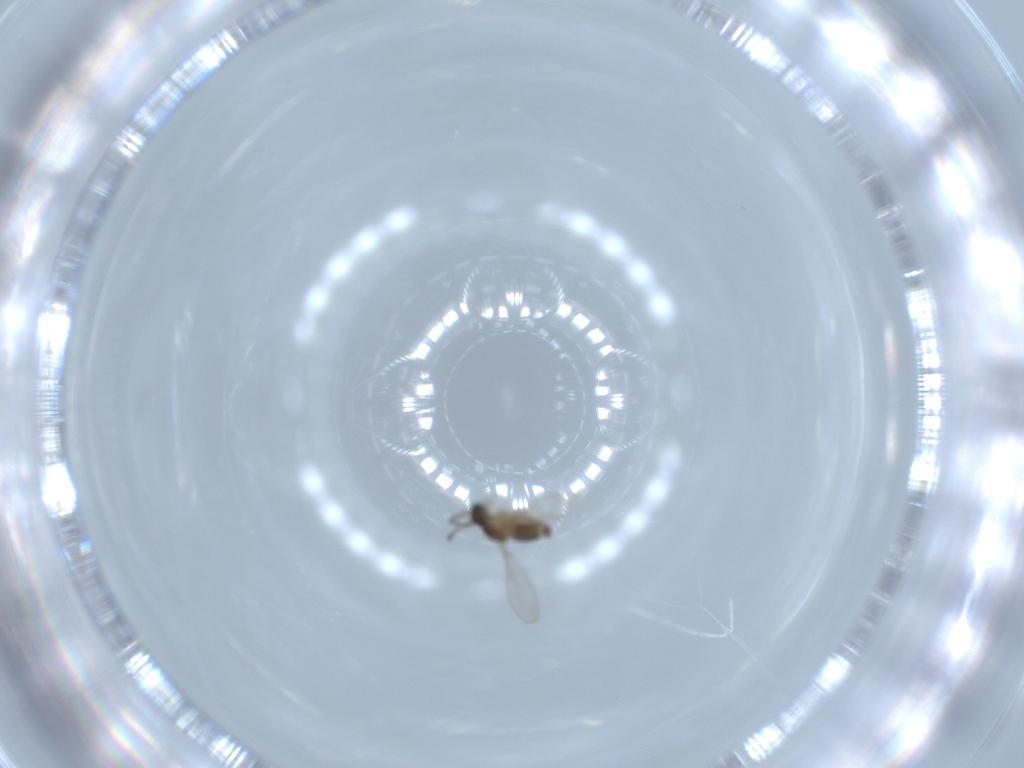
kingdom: Animalia
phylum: Arthropoda
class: Insecta
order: Diptera
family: Cecidomyiidae
